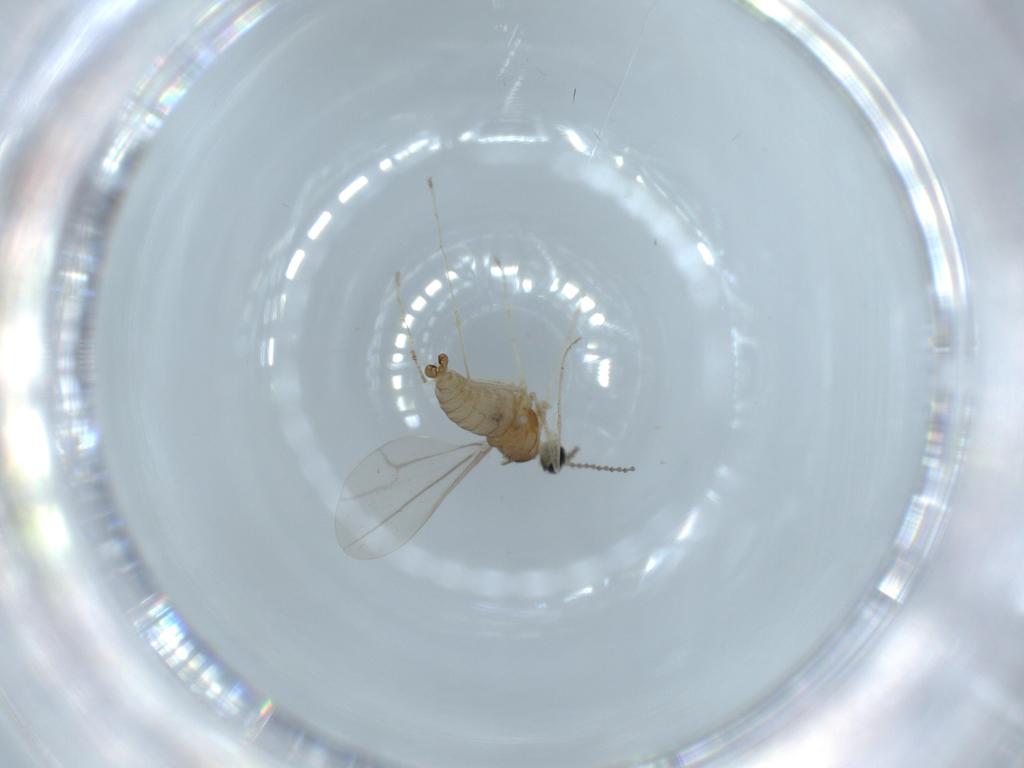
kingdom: Animalia
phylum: Arthropoda
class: Insecta
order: Diptera
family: Cecidomyiidae
